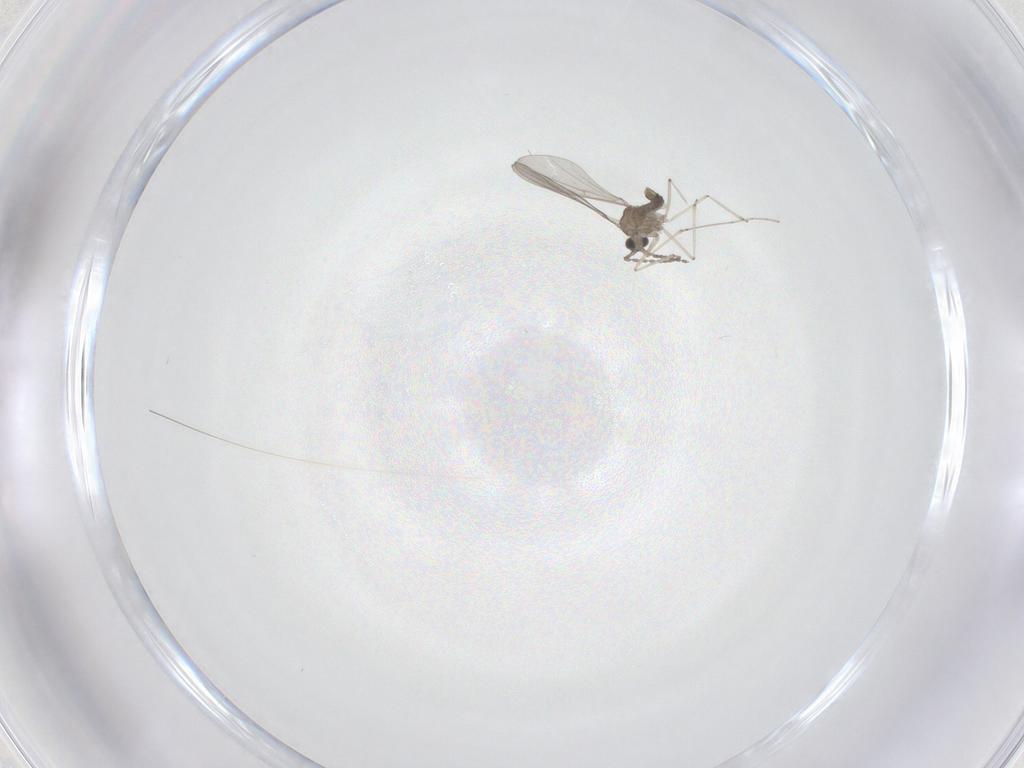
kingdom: Animalia
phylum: Arthropoda
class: Insecta
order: Diptera
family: Cecidomyiidae
